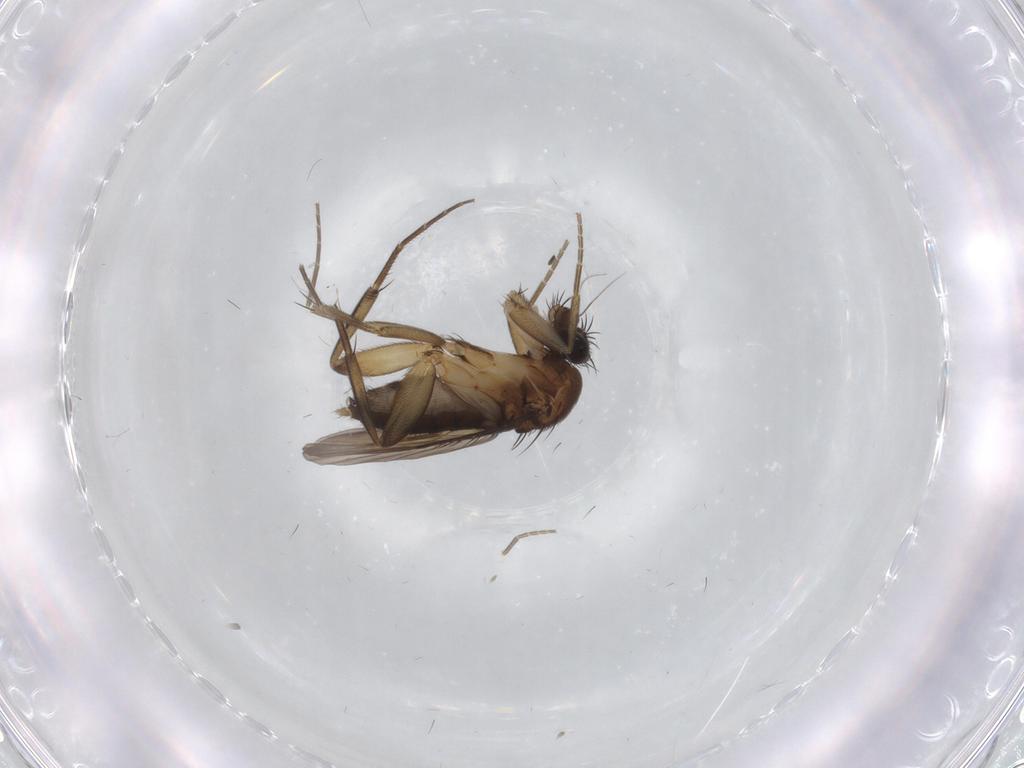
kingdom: Animalia
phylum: Arthropoda
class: Insecta
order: Diptera
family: Phoridae
